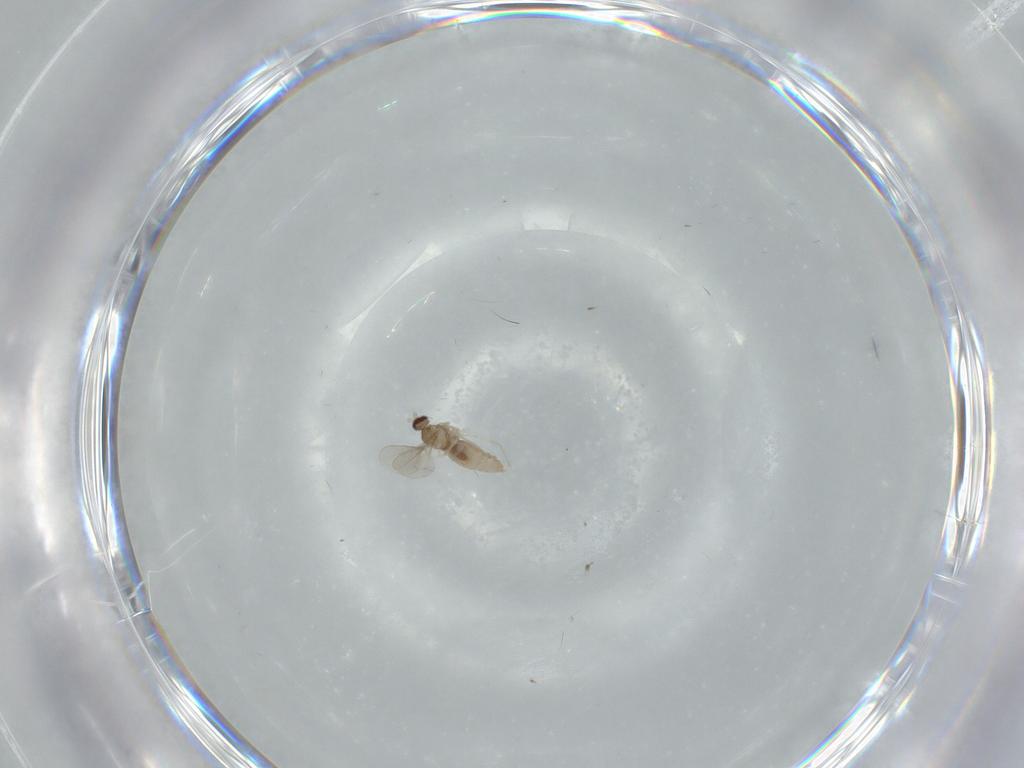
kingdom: Animalia
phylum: Arthropoda
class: Insecta
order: Diptera
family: Cecidomyiidae
